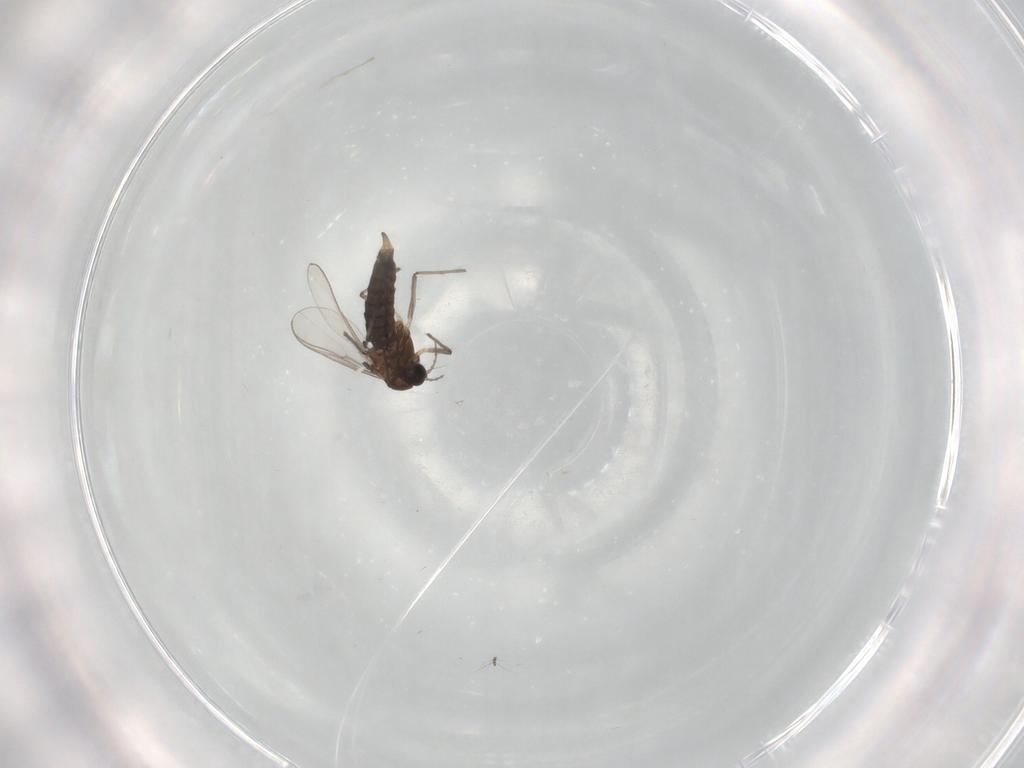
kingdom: Animalia
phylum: Arthropoda
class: Insecta
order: Diptera
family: Chironomidae
